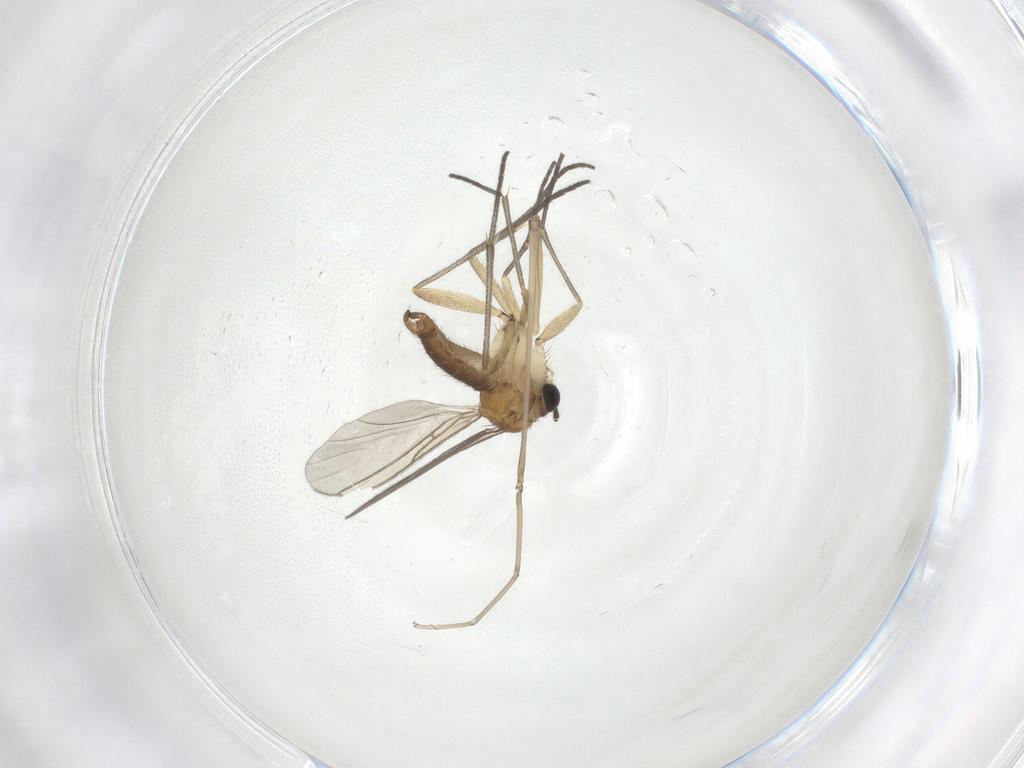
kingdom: Animalia
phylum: Arthropoda
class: Insecta
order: Diptera
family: Sciaridae
